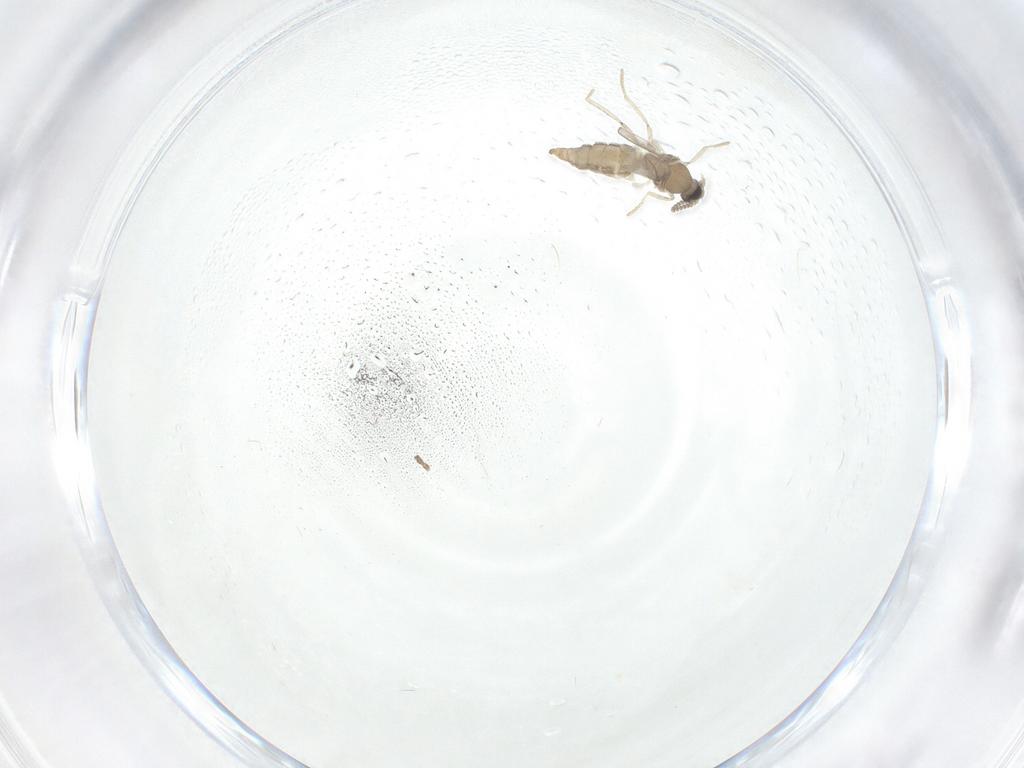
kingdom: Animalia
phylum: Arthropoda
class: Insecta
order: Diptera
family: Cecidomyiidae
